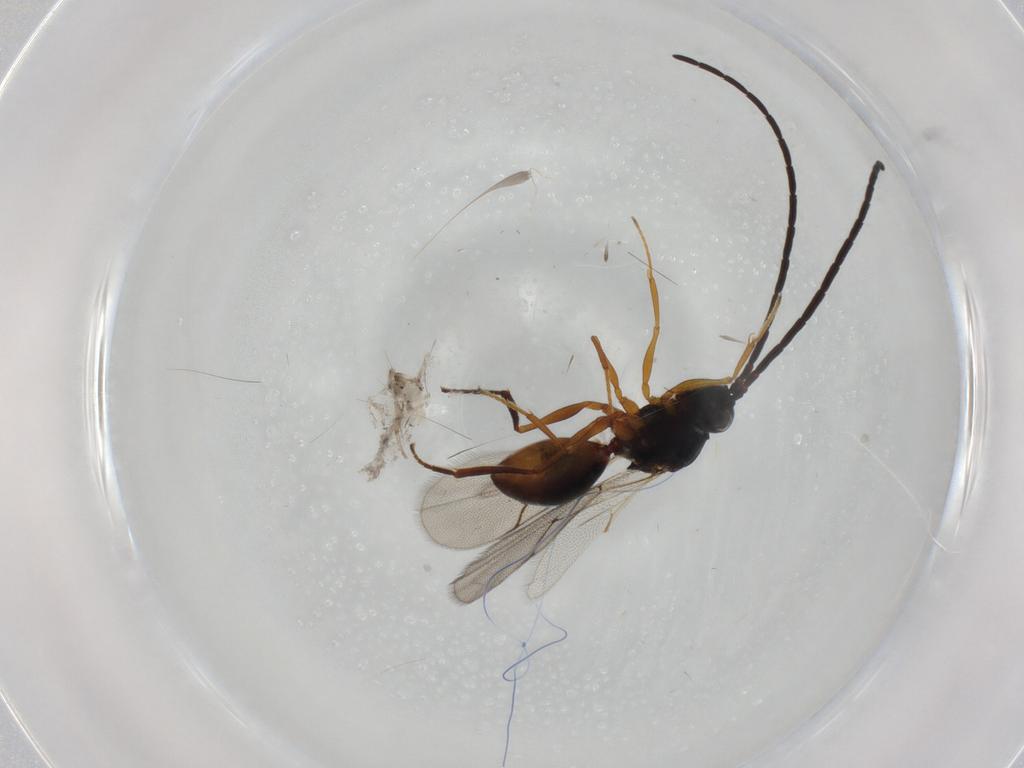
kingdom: Animalia
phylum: Arthropoda
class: Insecta
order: Hymenoptera
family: Figitidae
